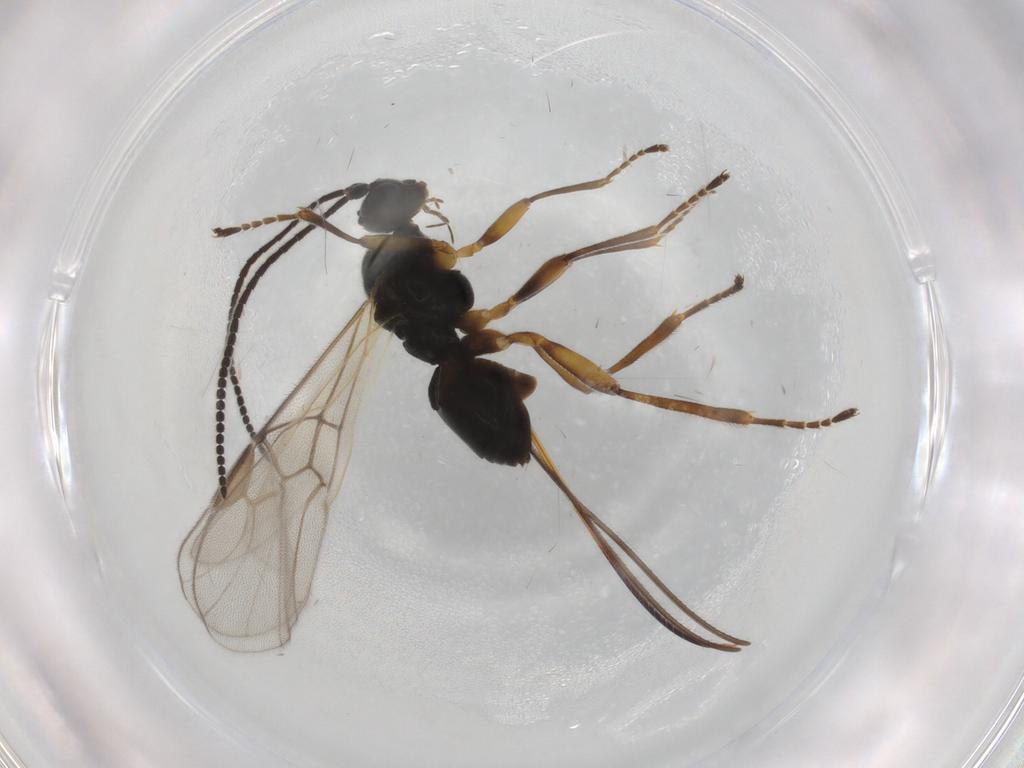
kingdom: Animalia
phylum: Arthropoda
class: Insecta
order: Hymenoptera
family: Braconidae
